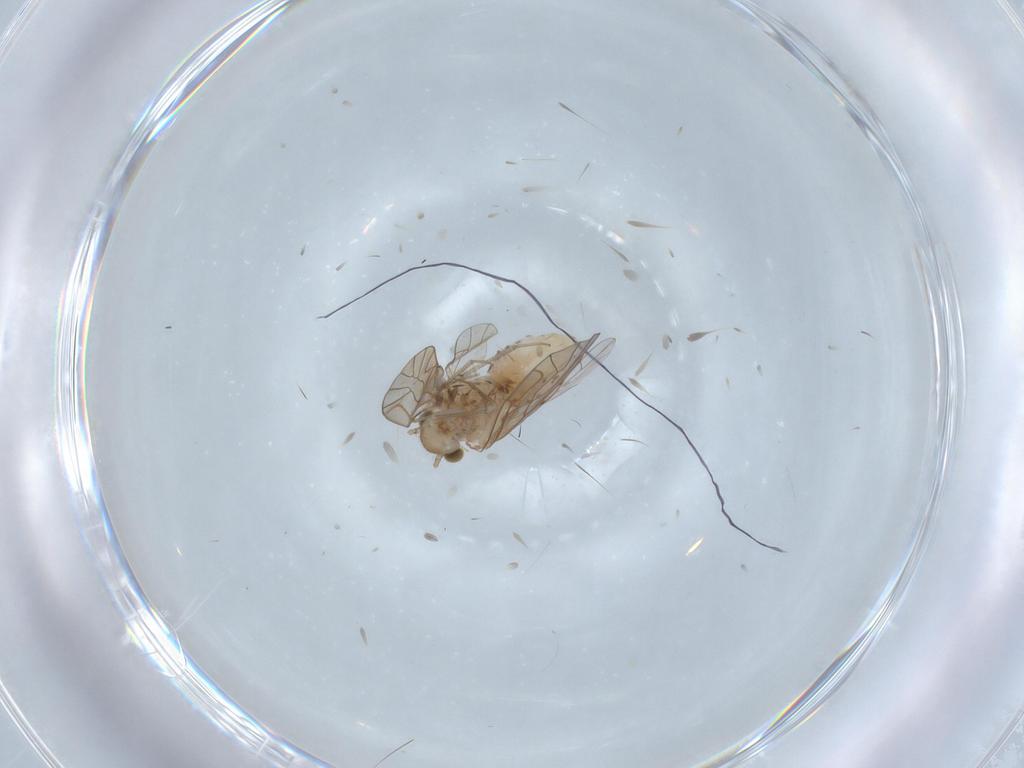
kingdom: Animalia
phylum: Arthropoda
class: Insecta
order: Psocodea
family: Lachesillidae
